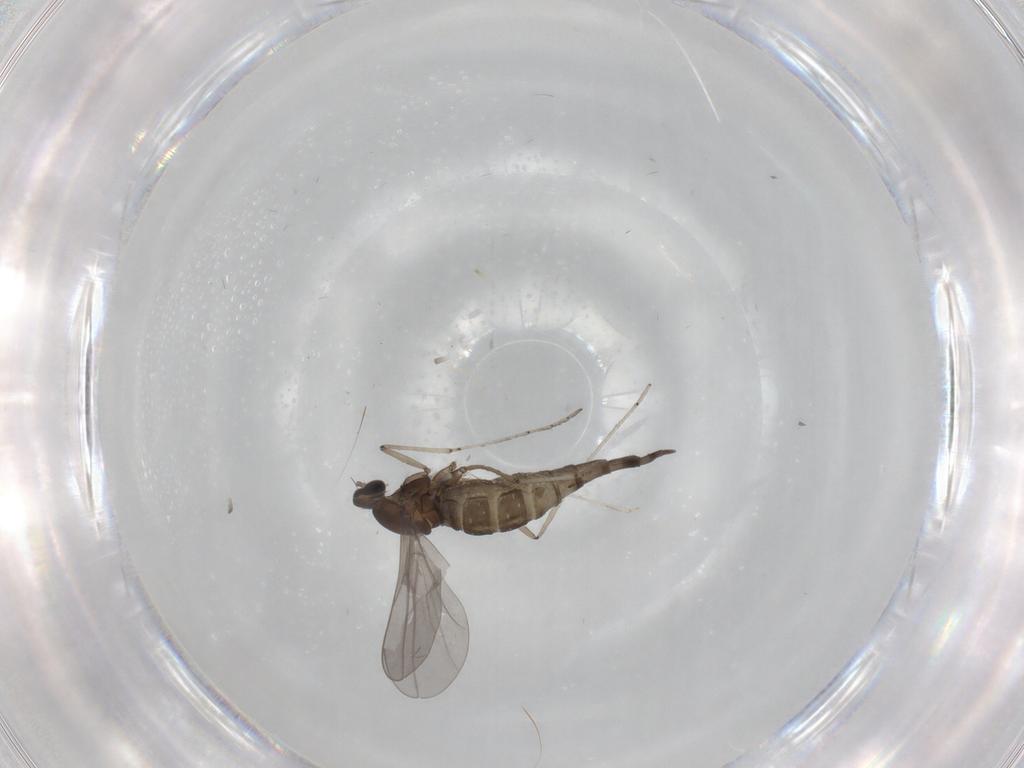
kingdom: Animalia
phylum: Arthropoda
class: Insecta
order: Diptera
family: Cecidomyiidae
